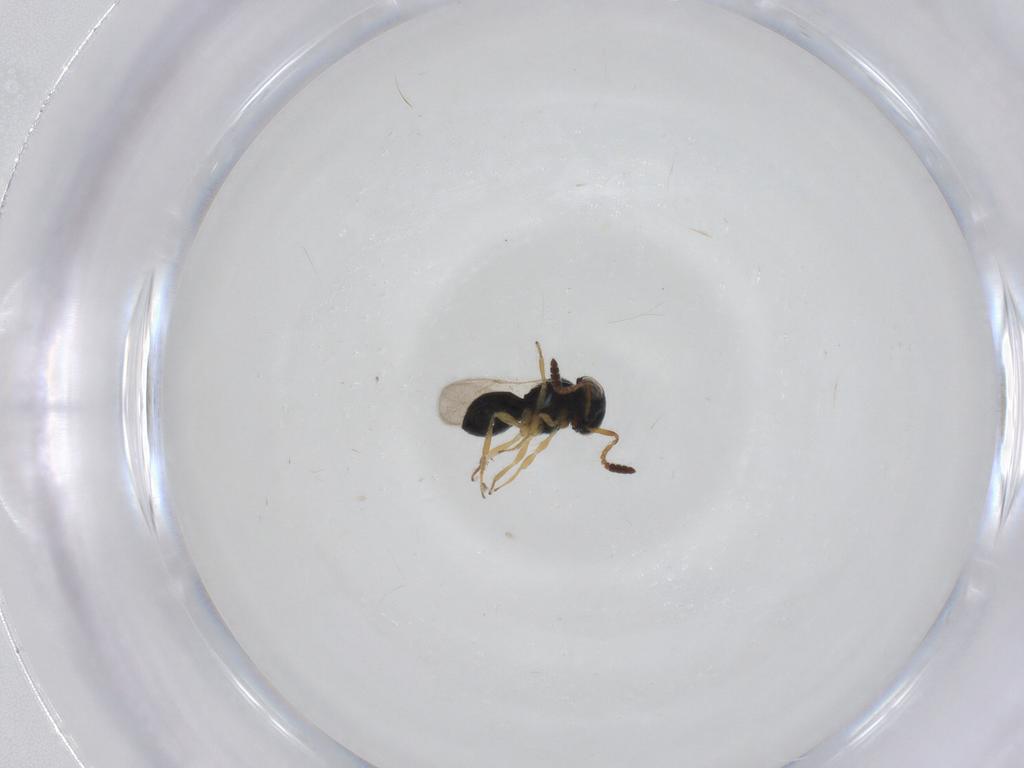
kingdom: Animalia
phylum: Arthropoda
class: Insecta
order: Hymenoptera
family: Scelionidae
